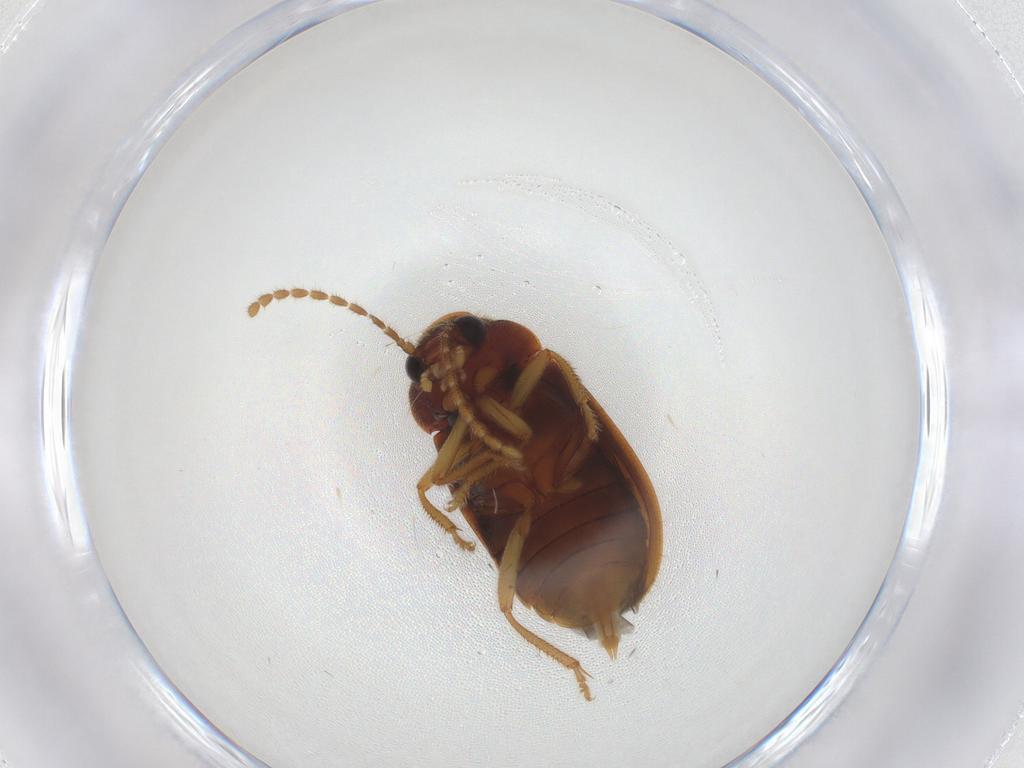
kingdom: Animalia
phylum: Arthropoda
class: Insecta
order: Coleoptera
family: Ptilodactylidae
